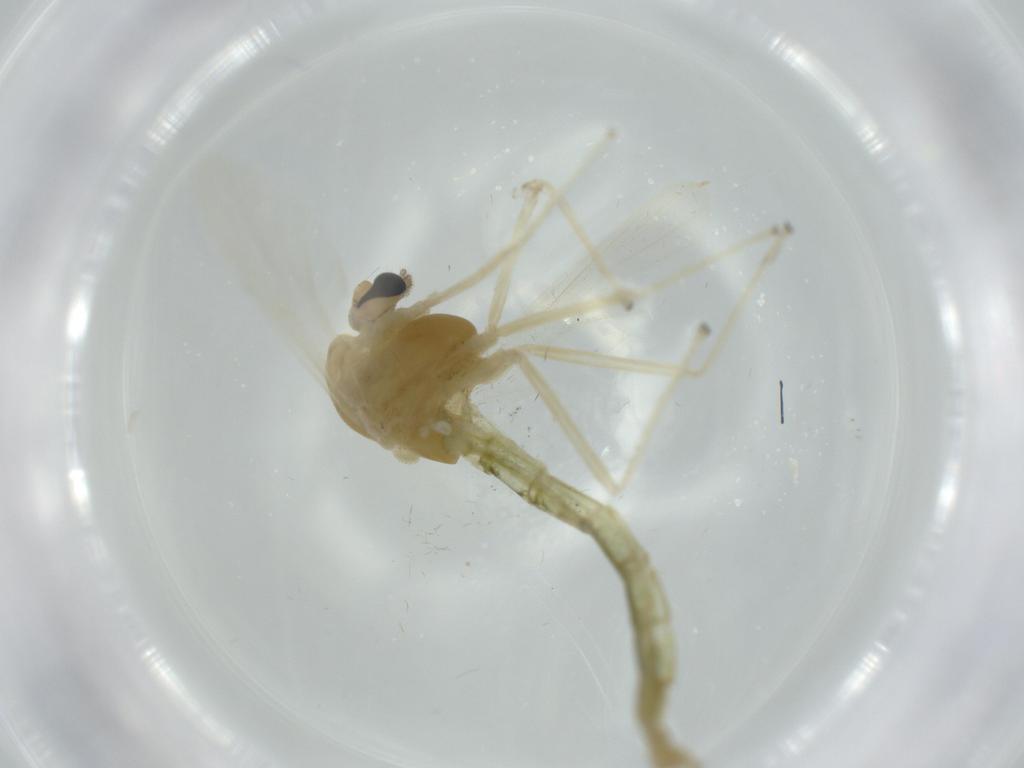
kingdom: Animalia
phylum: Arthropoda
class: Insecta
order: Diptera
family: Chironomidae
